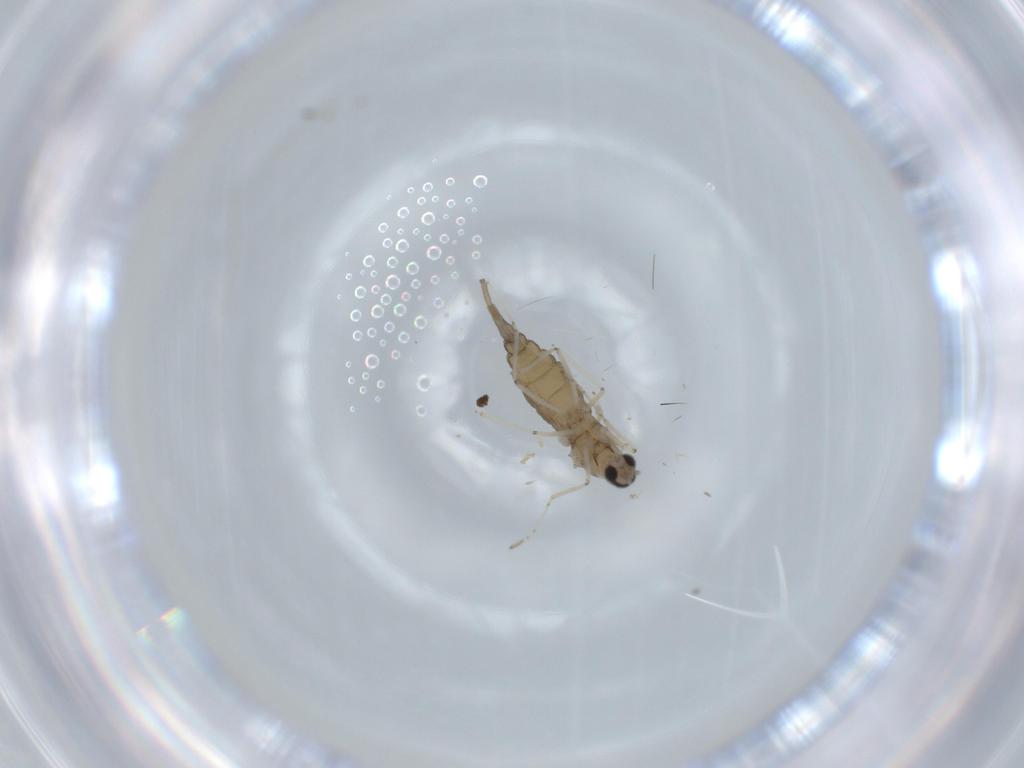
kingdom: Animalia
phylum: Arthropoda
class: Insecta
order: Diptera
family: Cecidomyiidae
